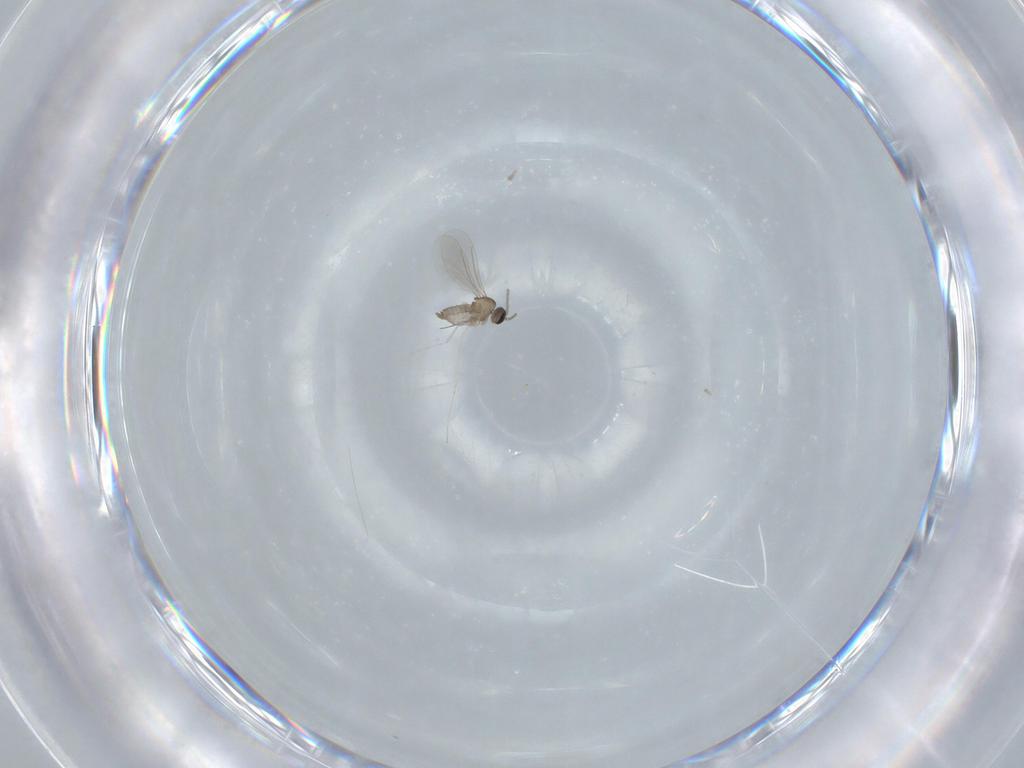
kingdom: Animalia
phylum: Arthropoda
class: Insecta
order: Diptera
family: Cecidomyiidae
